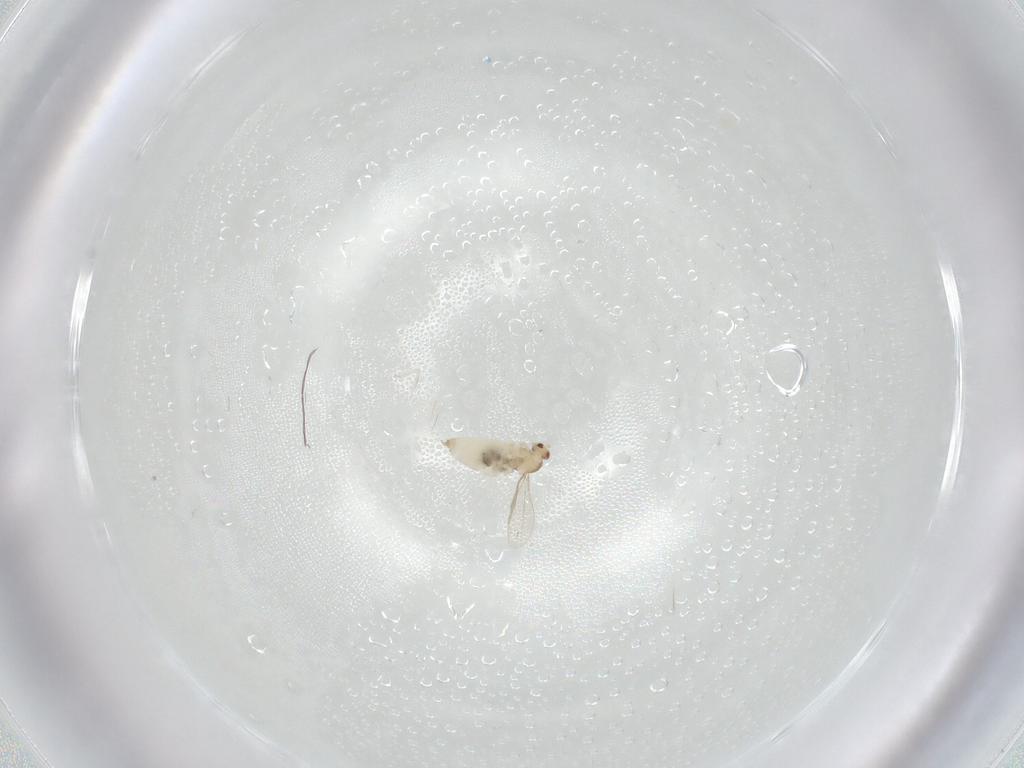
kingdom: Animalia
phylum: Arthropoda
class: Insecta
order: Diptera
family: Cecidomyiidae
